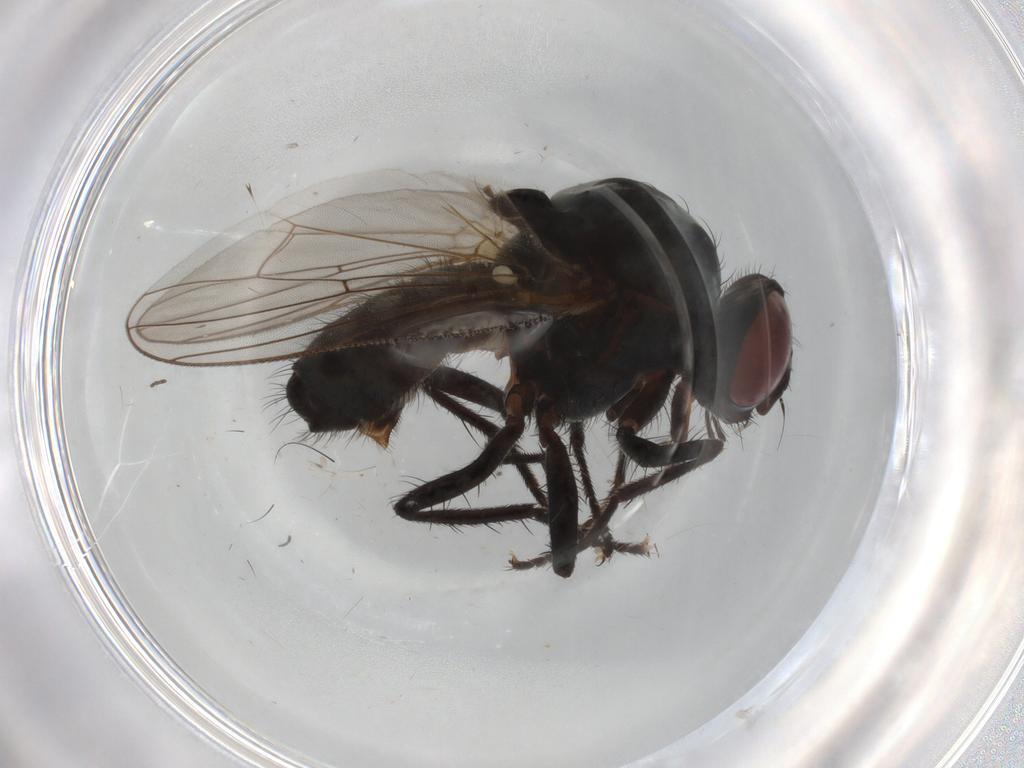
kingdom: Animalia
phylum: Arthropoda
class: Insecta
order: Diptera
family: Anthomyiidae
